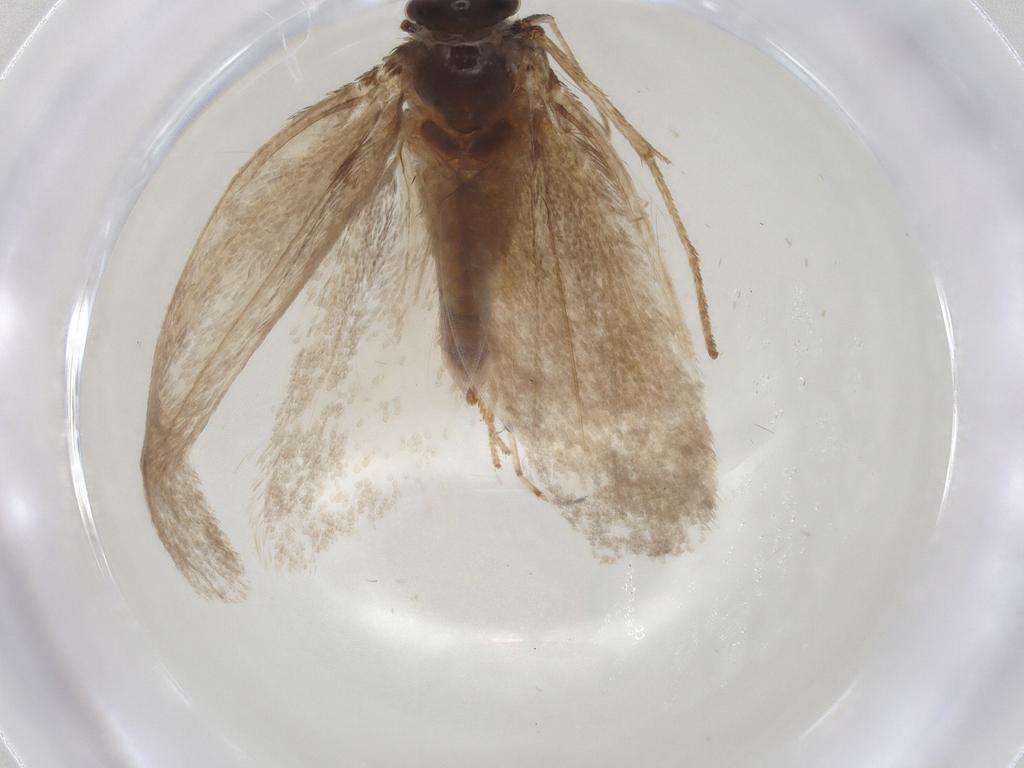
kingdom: Animalia
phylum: Arthropoda
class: Insecta
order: Lepidoptera
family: Adelidae
